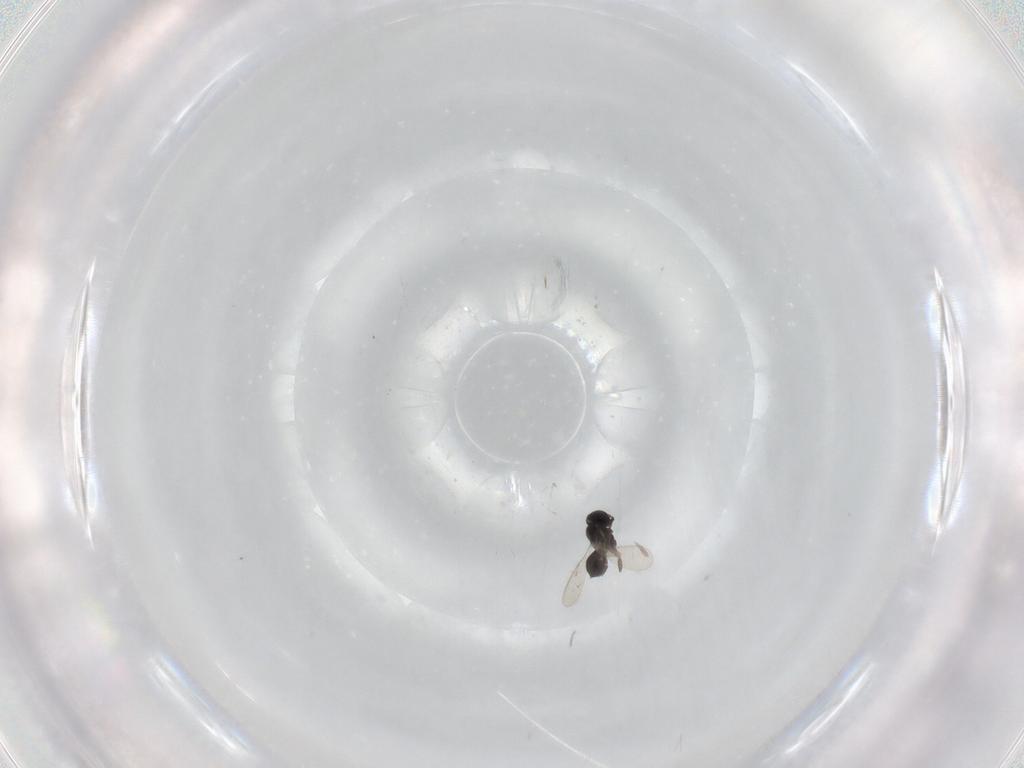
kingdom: Animalia
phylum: Arthropoda
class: Insecta
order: Hymenoptera
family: Scelionidae
